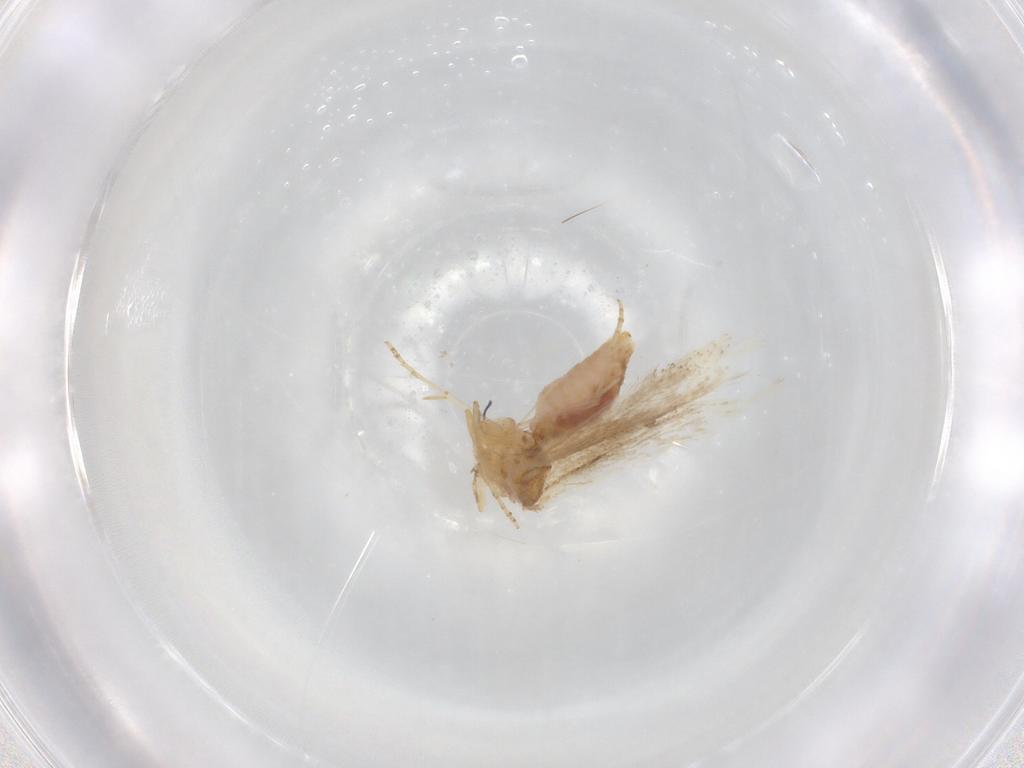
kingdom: Animalia
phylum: Arthropoda
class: Insecta
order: Lepidoptera
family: Bucculatricidae
